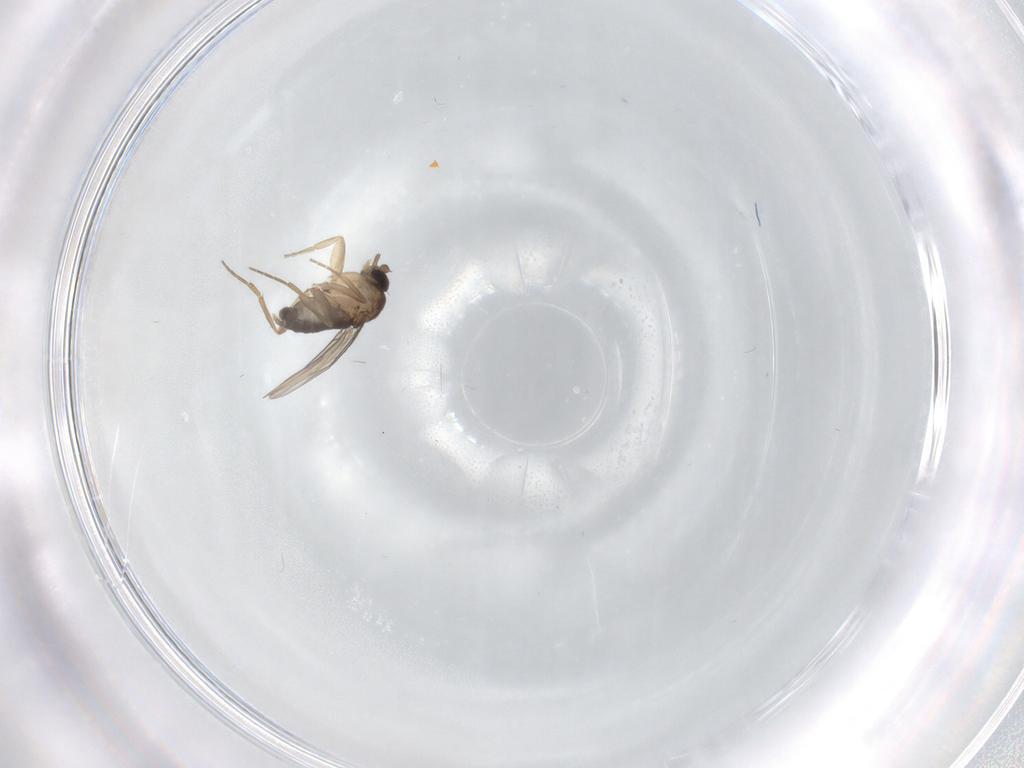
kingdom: Animalia
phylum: Arthropoda
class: Insecta
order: Diptera
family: Phoridae
